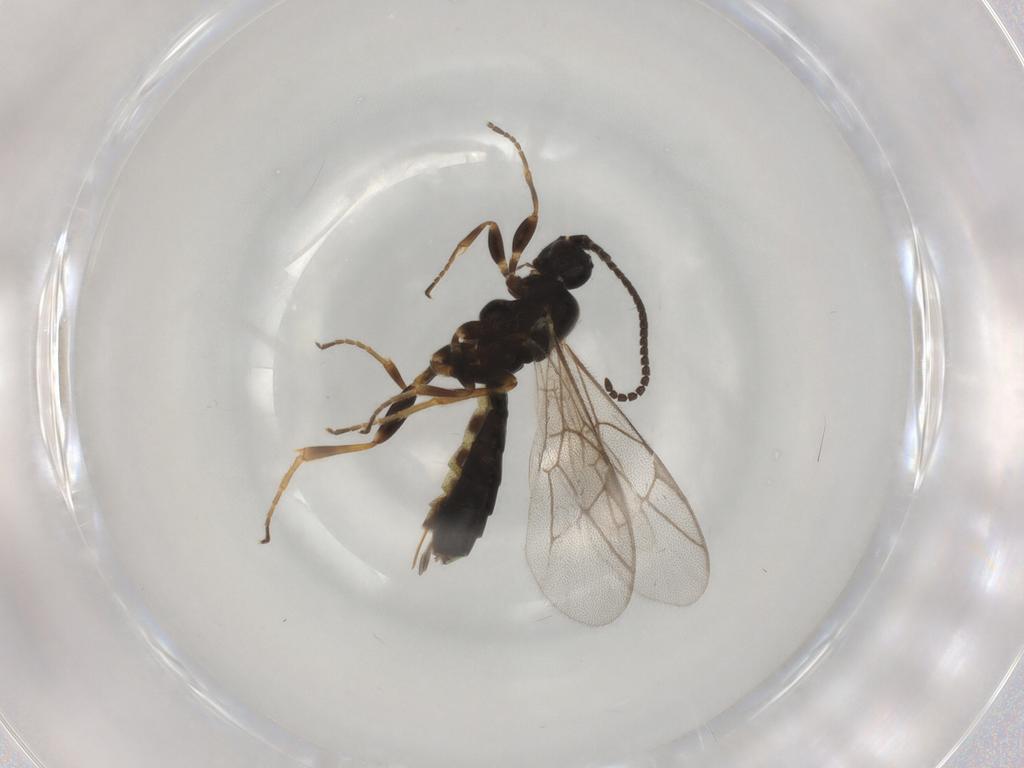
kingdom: Animalia
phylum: Arthropoda
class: Insecta
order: Hymenoptera
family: Ichneumonidae
